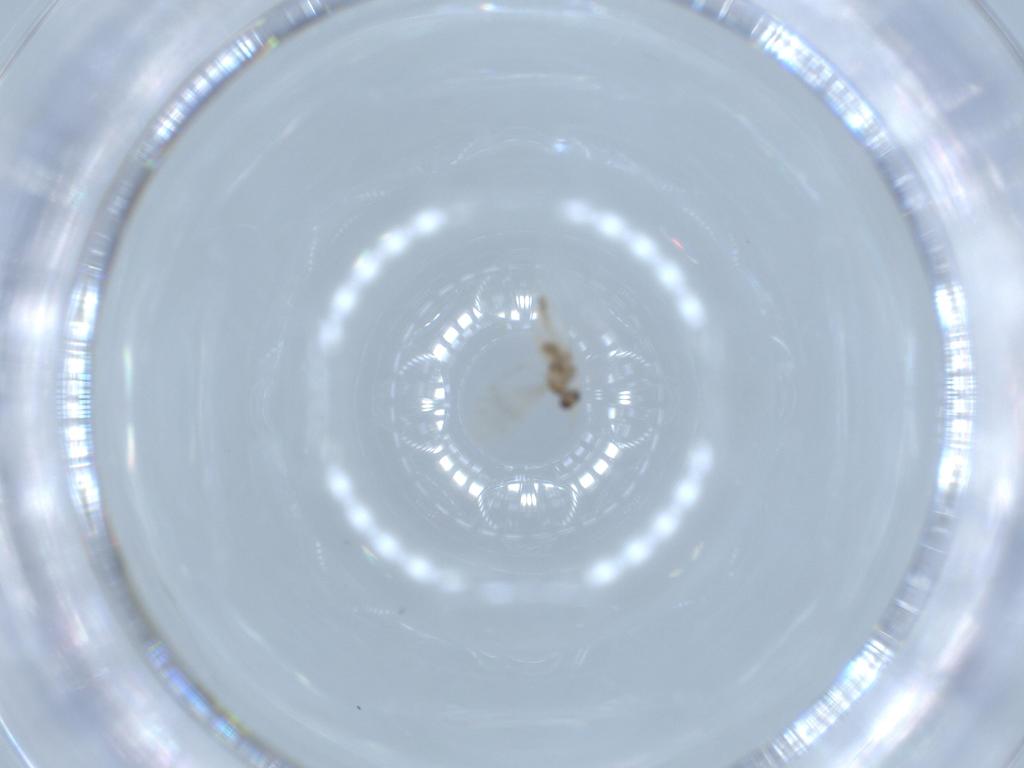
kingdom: Animalia
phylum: Arthropoda
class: Insecta
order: Diptera
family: Cecidomyiidae
